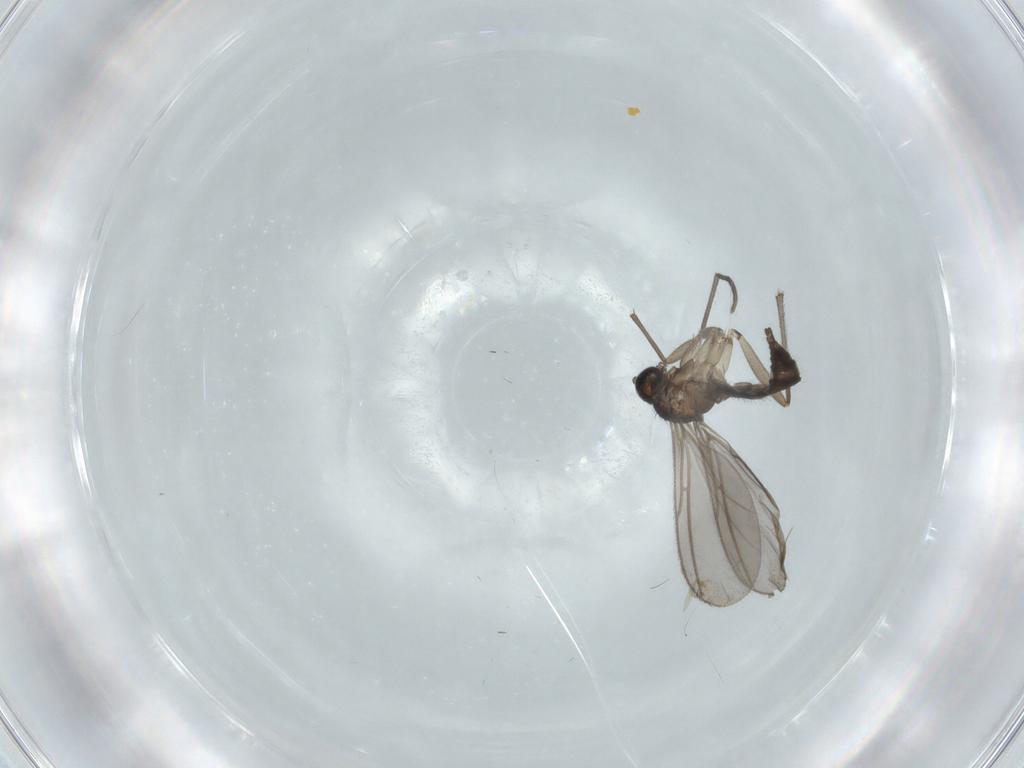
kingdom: Animalia
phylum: Arthropoda
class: Insecta
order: Diptera
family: Sciaridae
